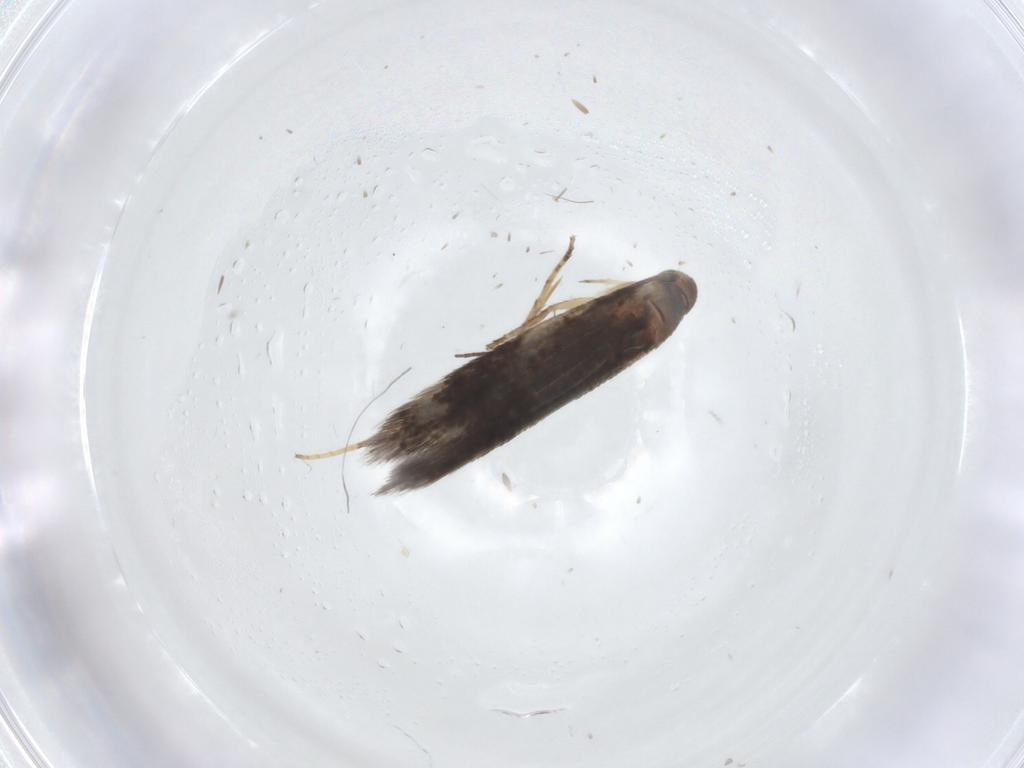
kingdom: Animalia
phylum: Arthropoda
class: Insecta
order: Lepidoptera
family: Gelechiidae
